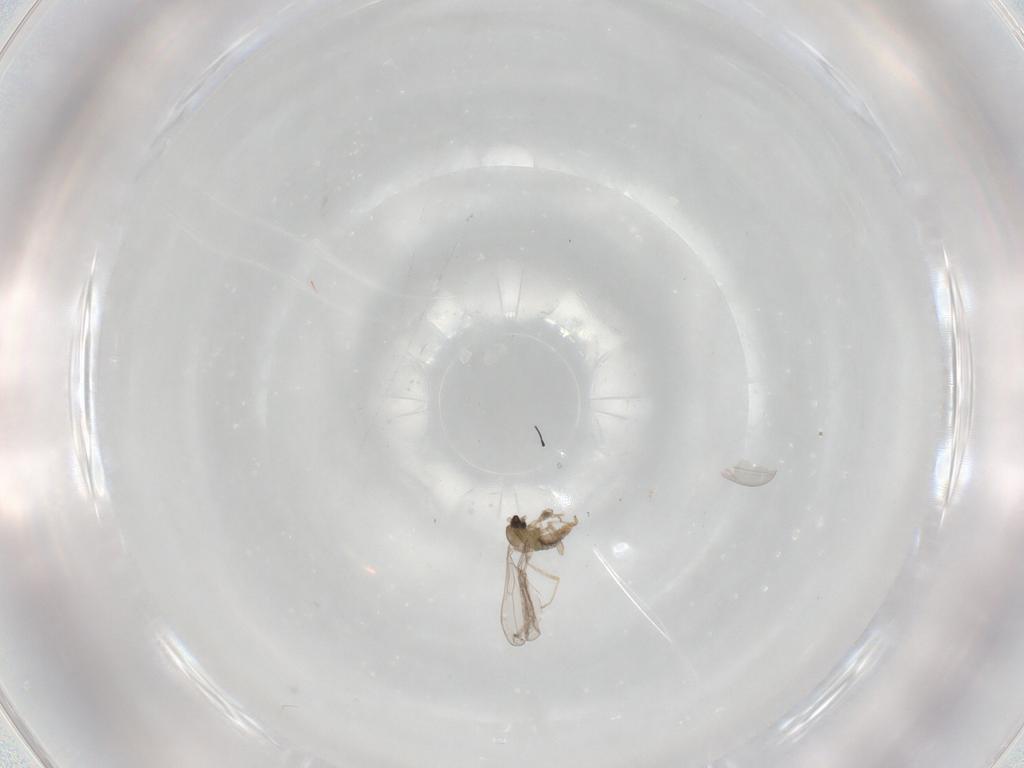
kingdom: Animalia
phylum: Arthropoda
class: Insecta
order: Diptera
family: Cecidomyiidae
